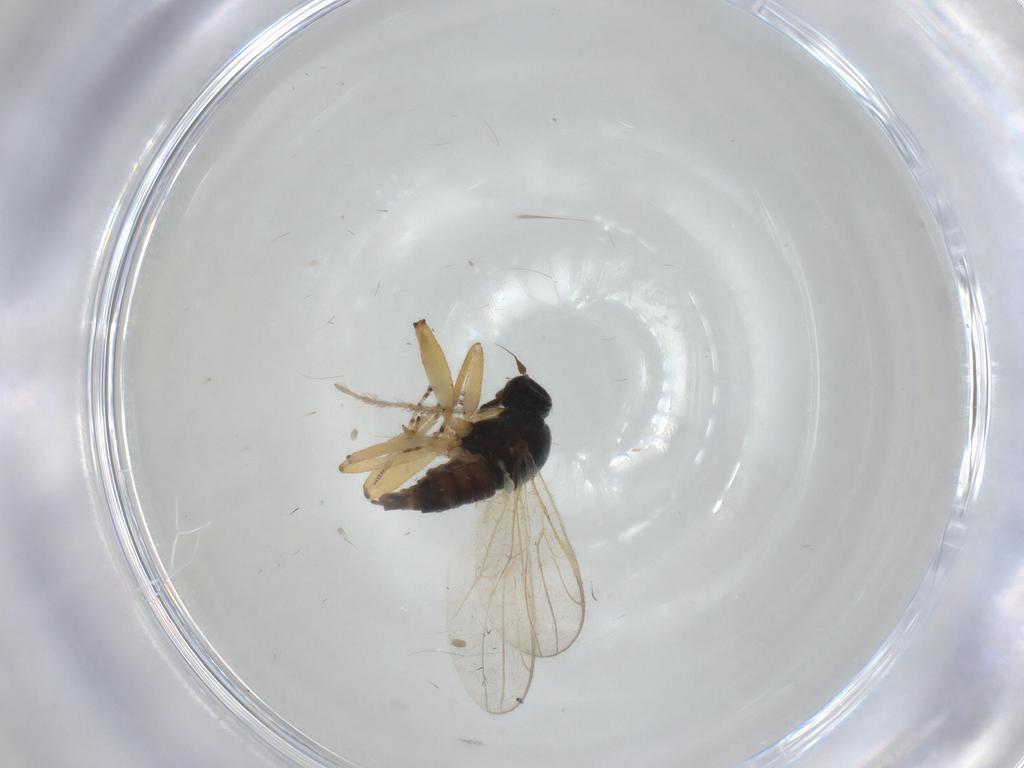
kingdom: Animalia
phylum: Arthropoda
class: Insecta
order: Diptera
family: Hybotidae
